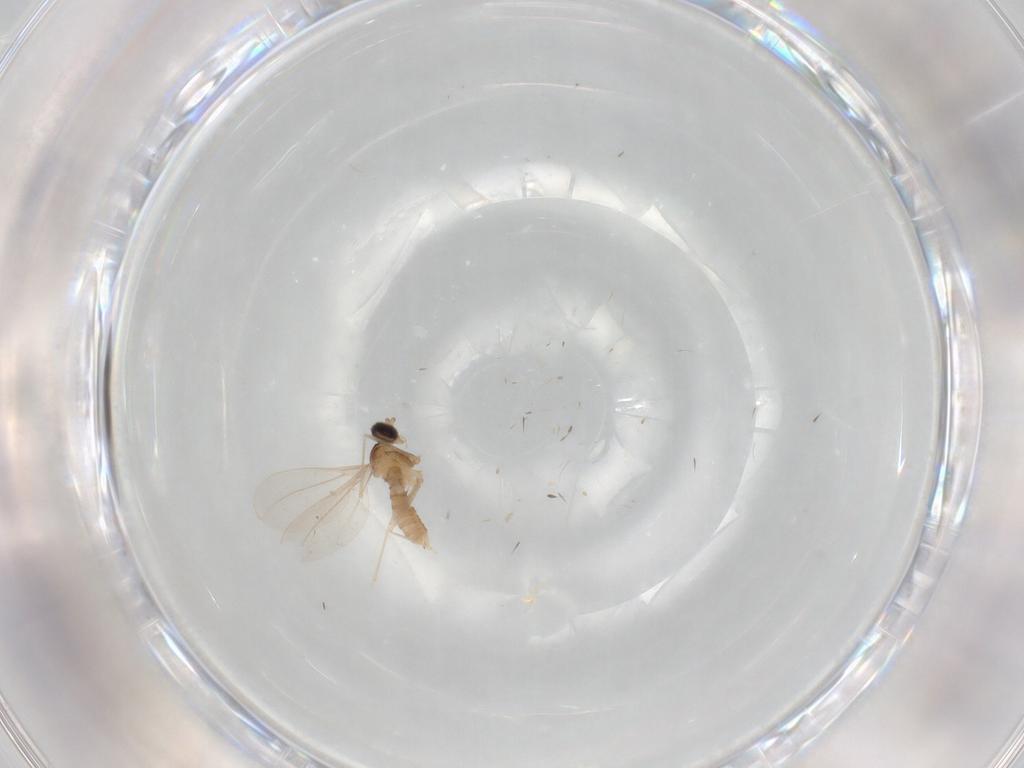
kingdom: Animalia
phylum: Arthropoda
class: Insecta
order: Diptera
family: Cecidomyiidae
